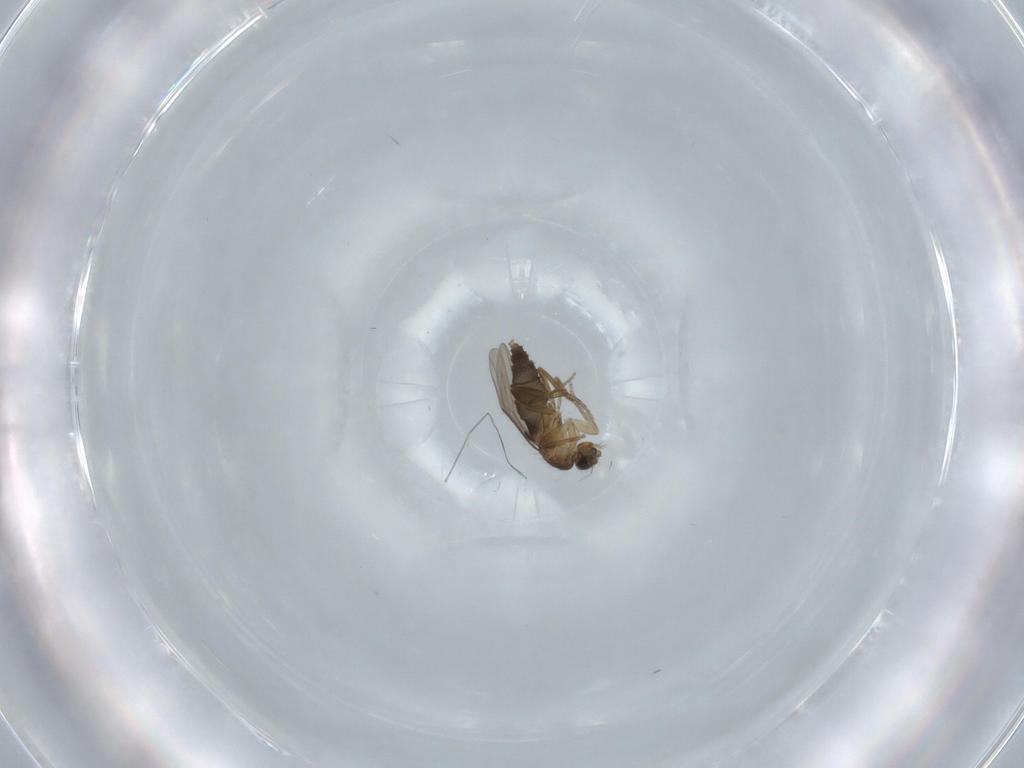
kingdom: Animalia
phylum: Arthropoda
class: Insecta
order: Diptera
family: Phoridae
